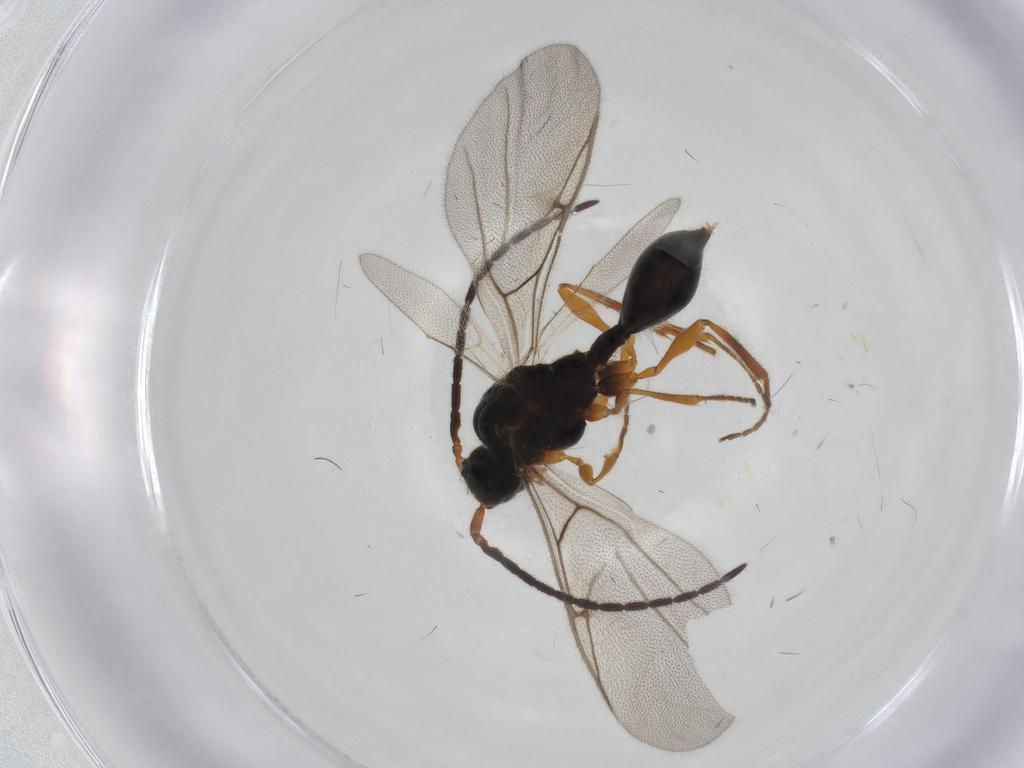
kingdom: Animalia
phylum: Arthropoda
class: Insecta
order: Hymenoptera
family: Diapriidae
